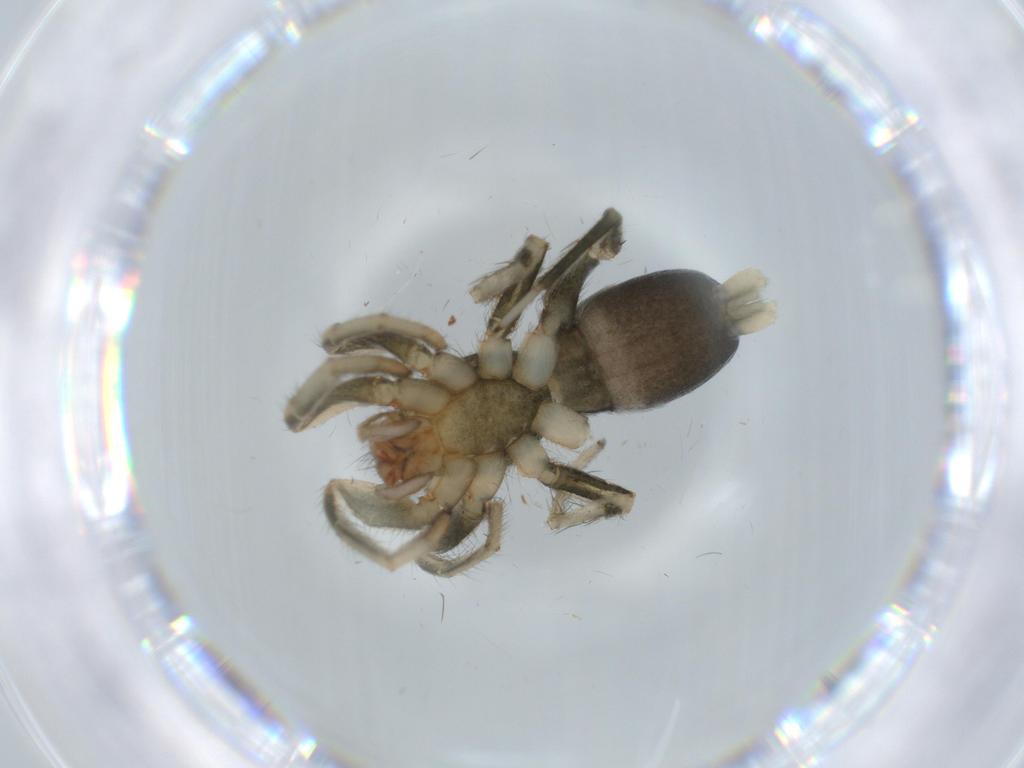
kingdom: Animalia
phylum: Arthropoda
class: Arachnida
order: Araneae
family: Gnaphosidae
